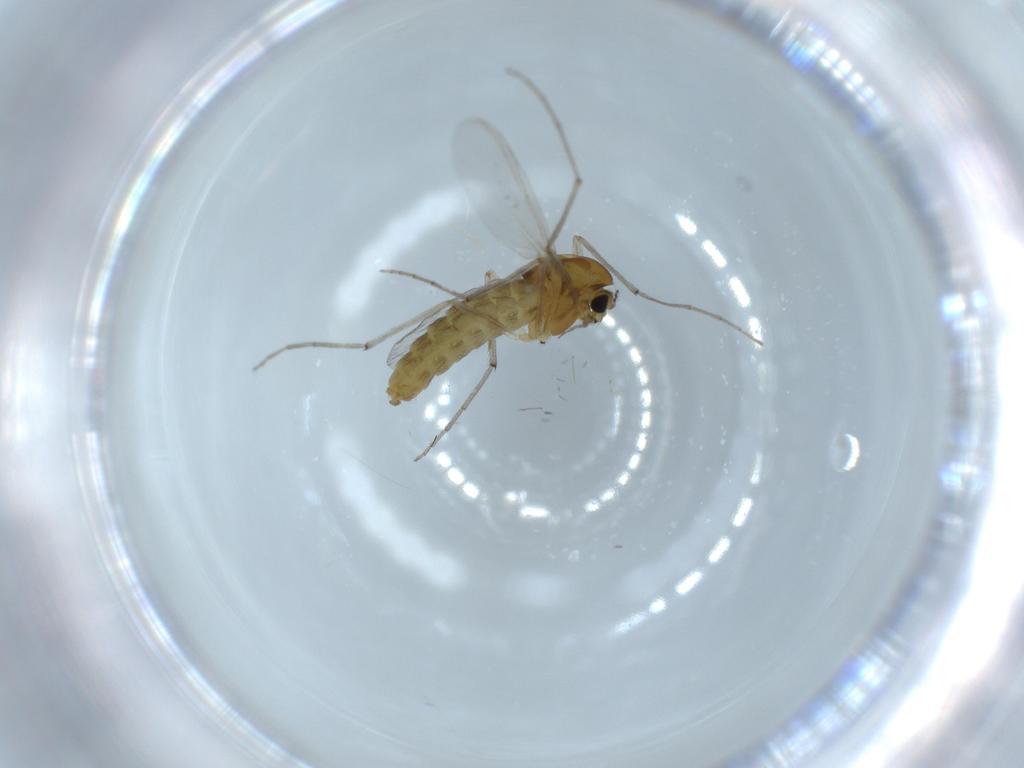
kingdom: Animalia
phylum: Arthropoda
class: Insecta
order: Diptera
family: Chironomidae
